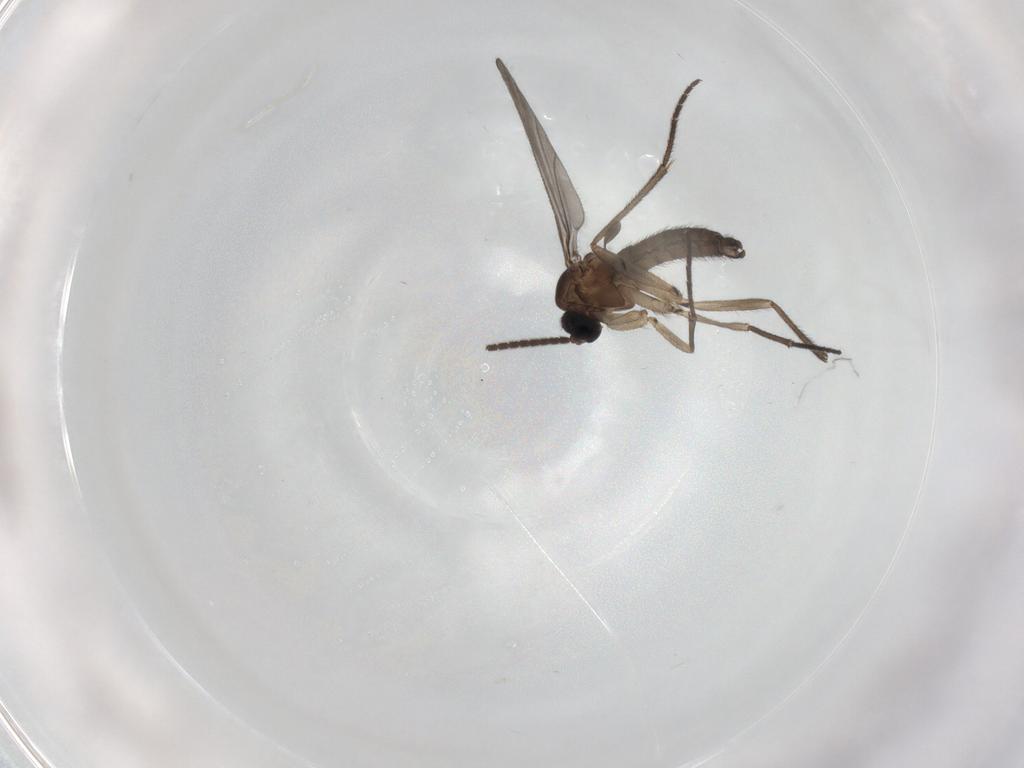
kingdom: Animalia
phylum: Arthropoda
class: Insecta
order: Diptera
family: Sciaridae
